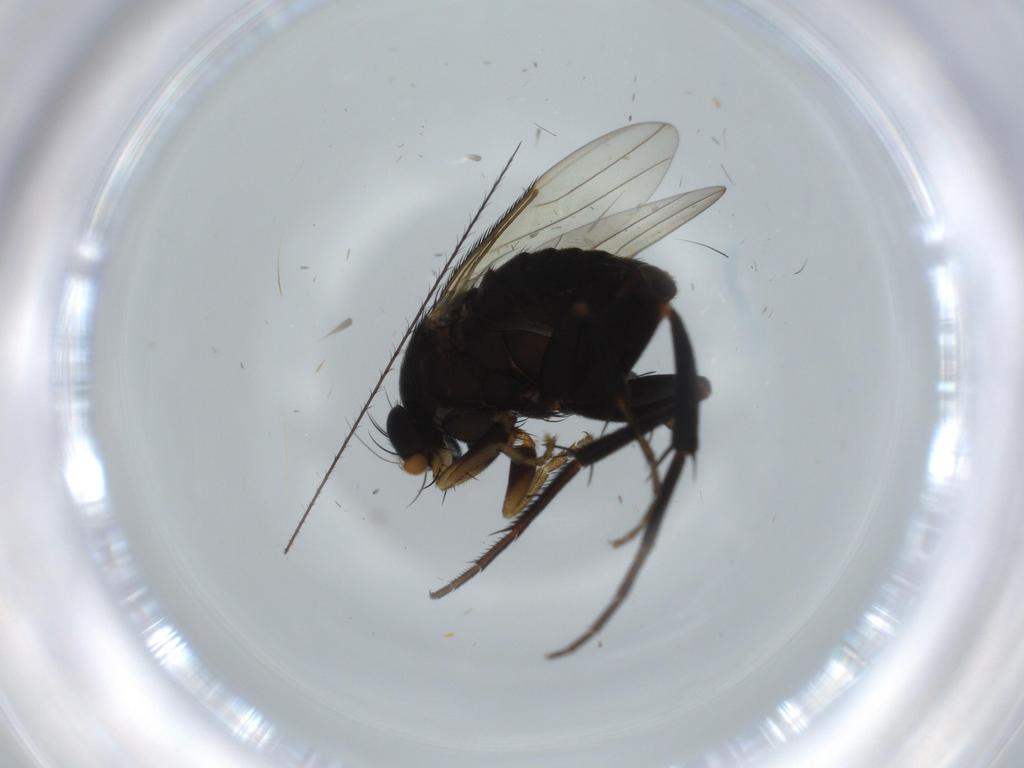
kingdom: Animalia
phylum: Arthropoda
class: Insecta
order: Diptera
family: Phoridae
